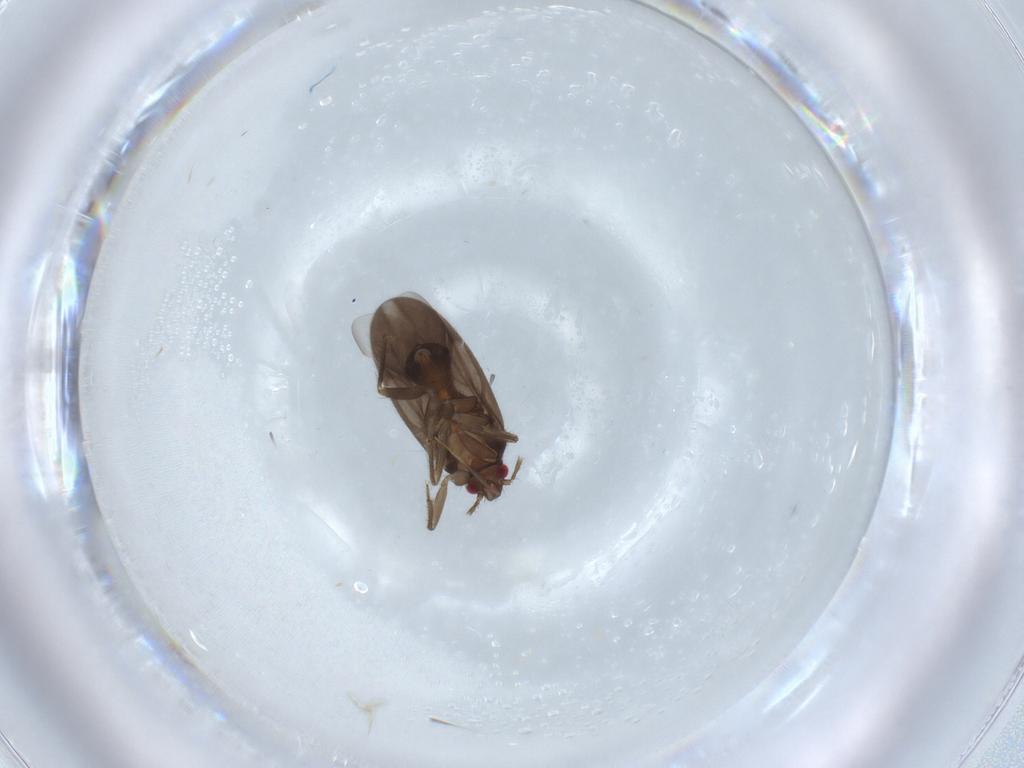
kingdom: Animalia
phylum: Arthropoda
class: Insecta
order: Hemiptera
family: Ceratocombidae
